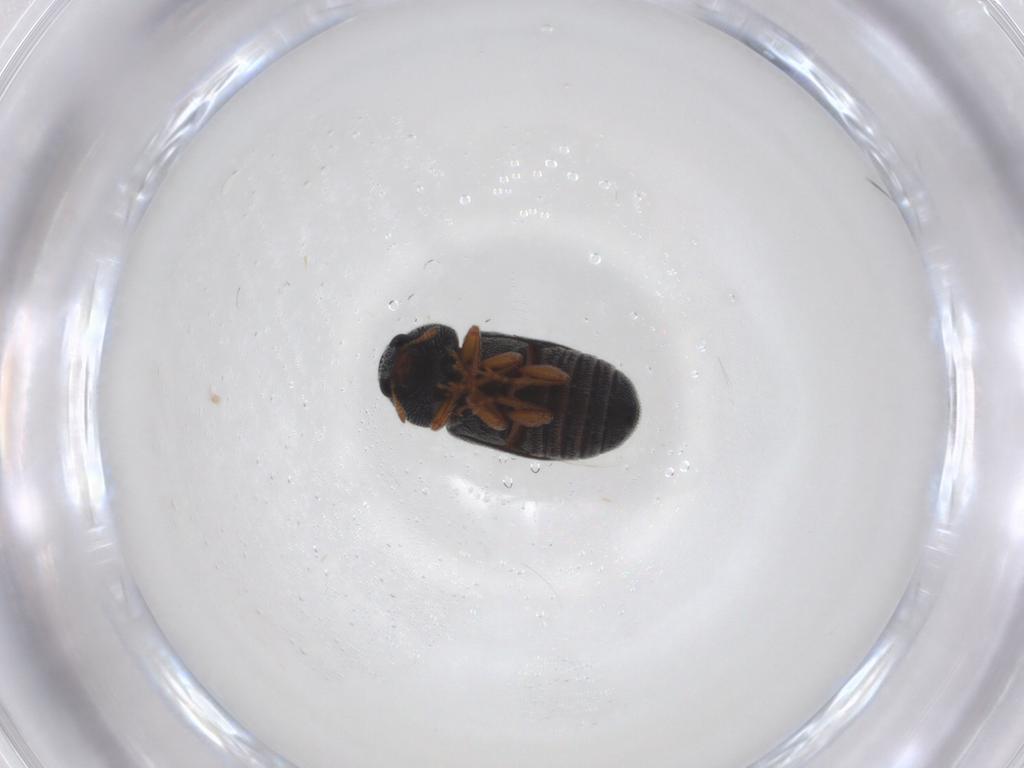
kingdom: Animalia
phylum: Arthropoda
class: Insecta
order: Coleoptera
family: Anthribidae
